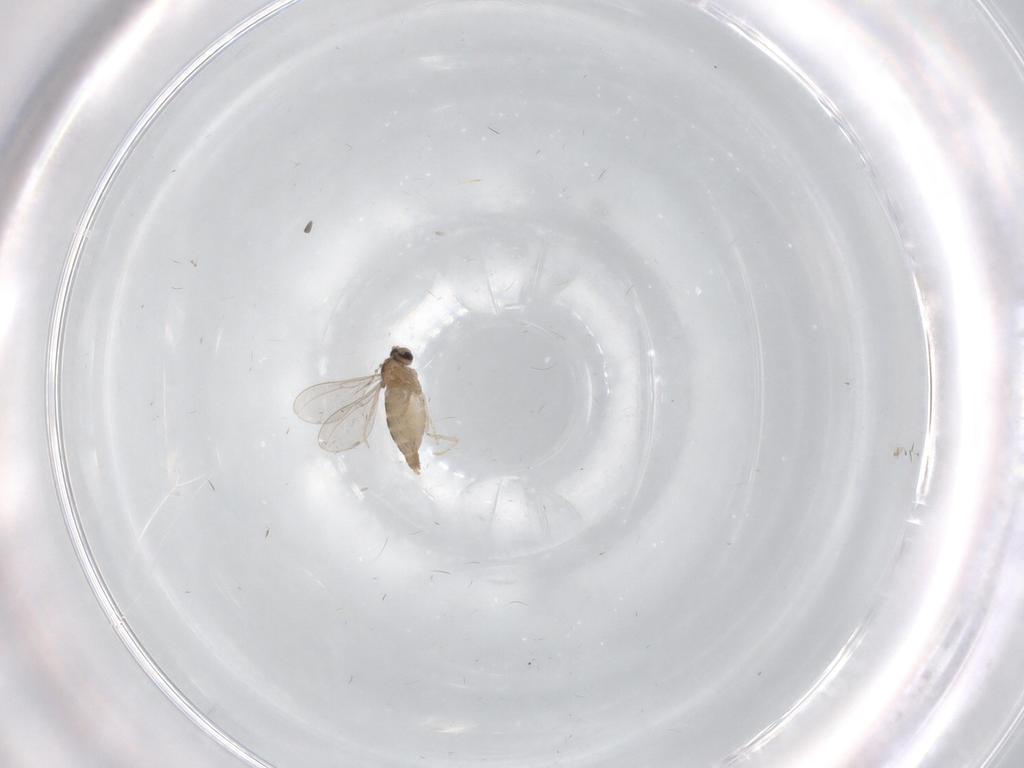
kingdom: Animalia
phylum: Arthropoda
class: Insecta
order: Diptera
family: Cecidomyiidae
